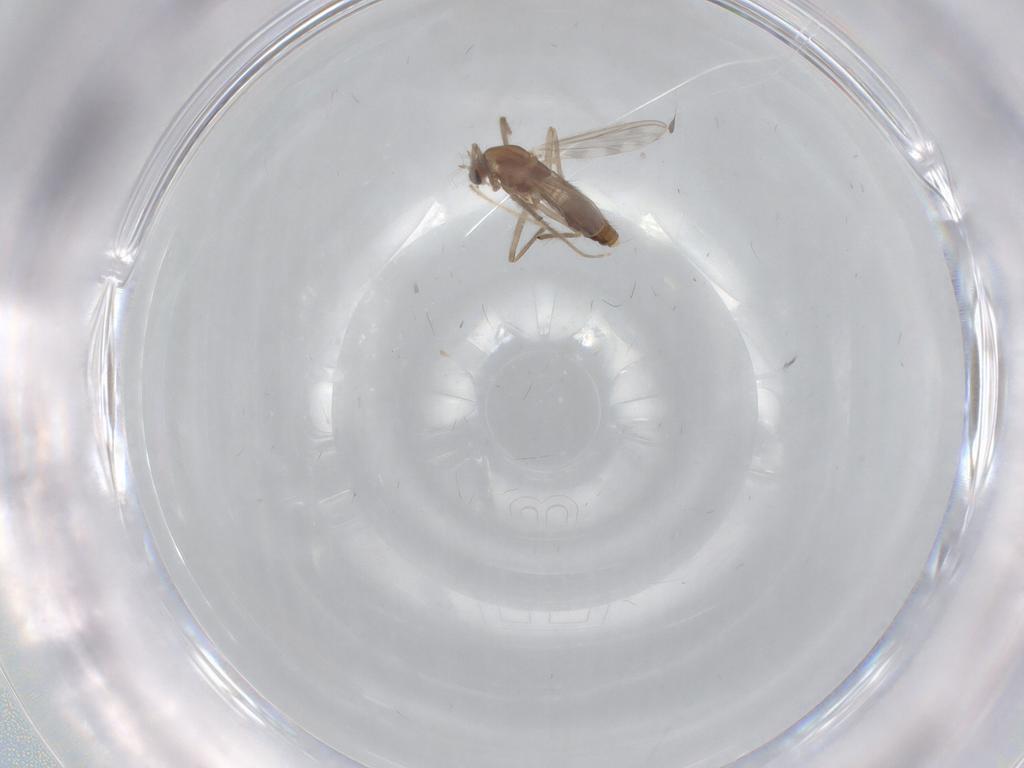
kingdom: Animalia
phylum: Arthropoda
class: Insecta
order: Diptera
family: Chironomidae
